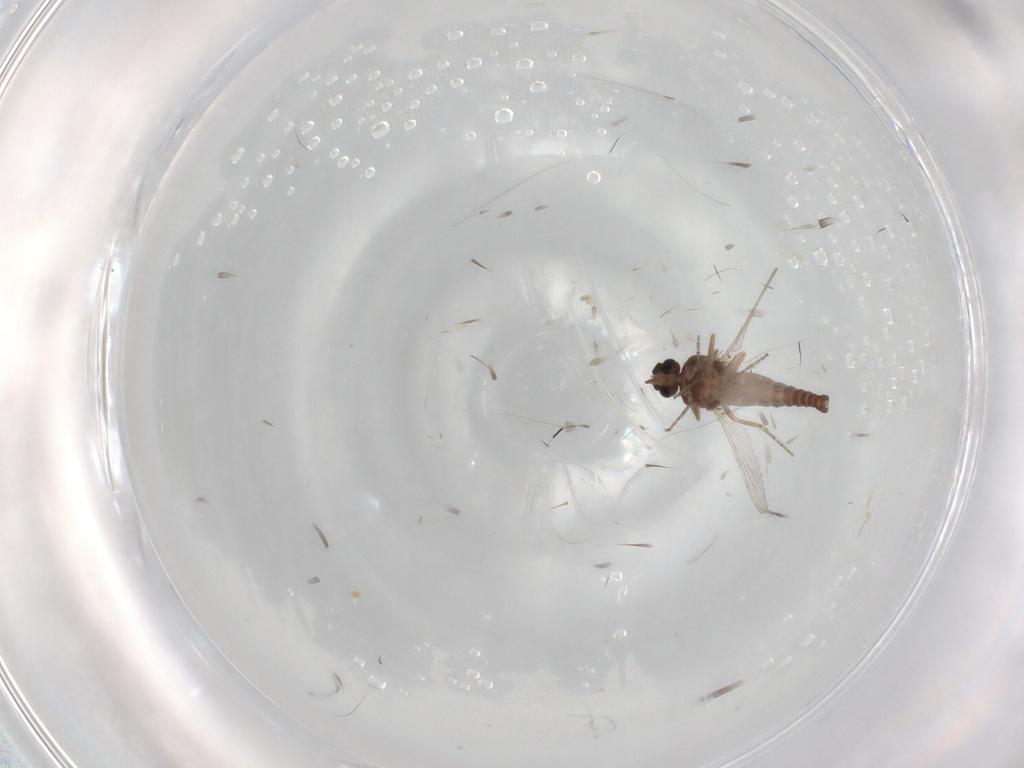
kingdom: Animalia
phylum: Arthropoda
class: Insecta
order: Diptera
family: Ceratopogonidae
